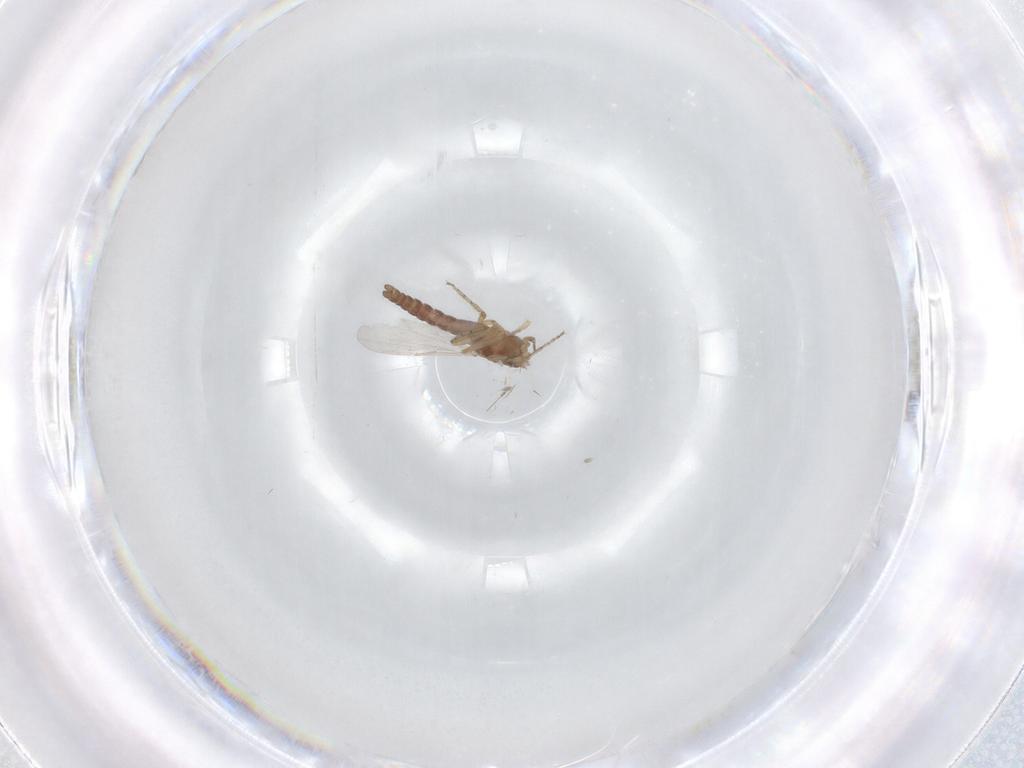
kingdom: Animalia
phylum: Arthropoda
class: Insecta
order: Diptera
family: Ceratopogonidae
